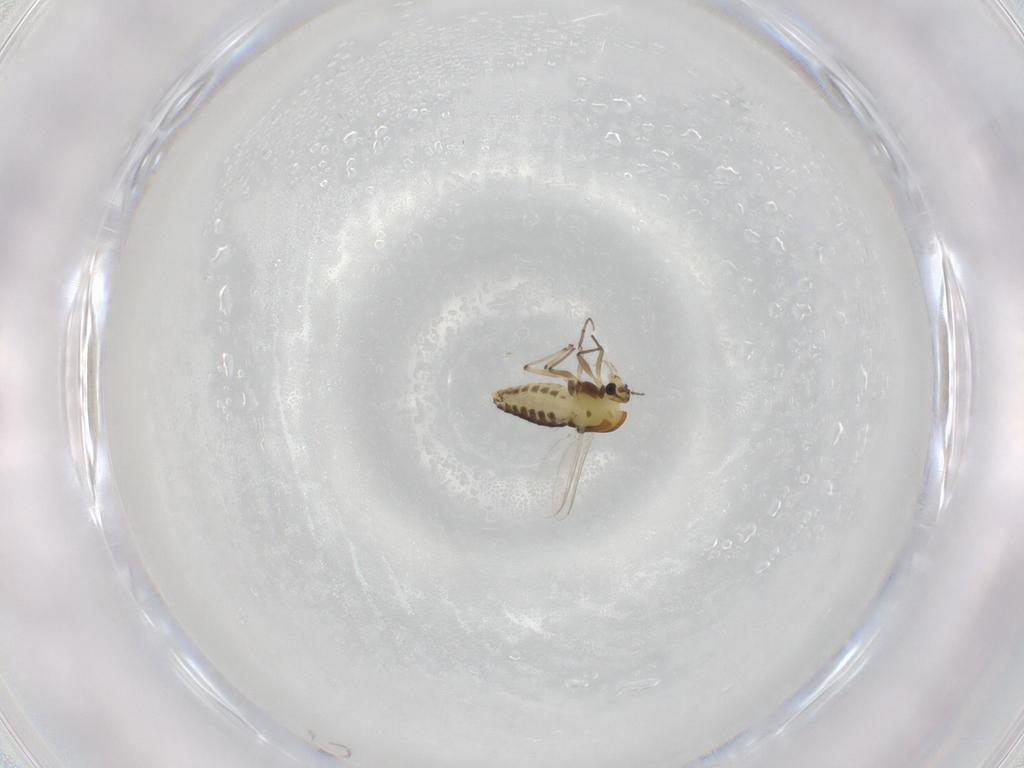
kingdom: Animalia
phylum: Arthropoda
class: Insecta
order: Diptera
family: Chironomidae
